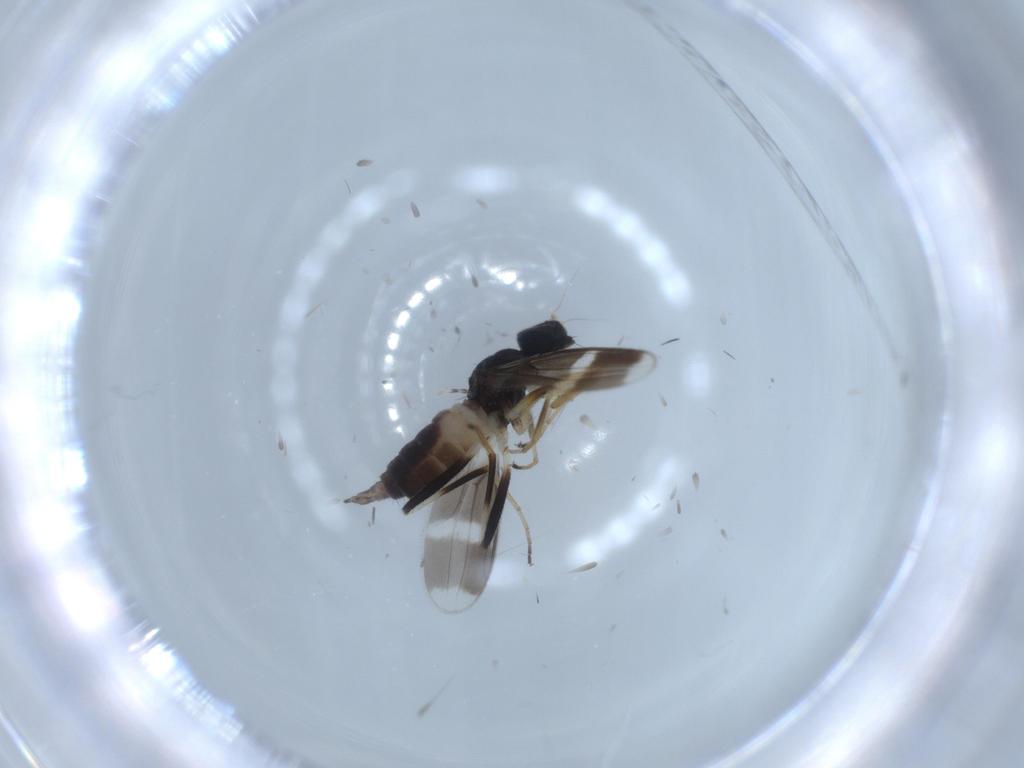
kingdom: Animalia
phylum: Arthropoda
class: Insecta
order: Diptera
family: Hybotidae
